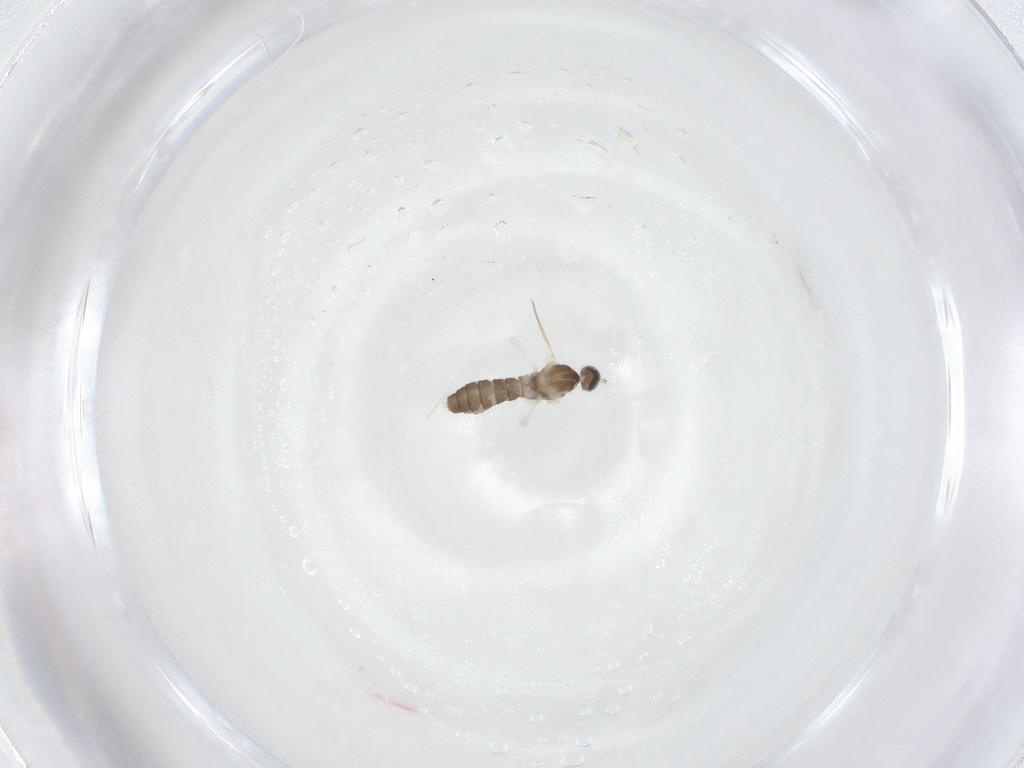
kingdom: Animalia
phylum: Arthropoda
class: Insecta
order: Diptera
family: Cecidomyiidae
